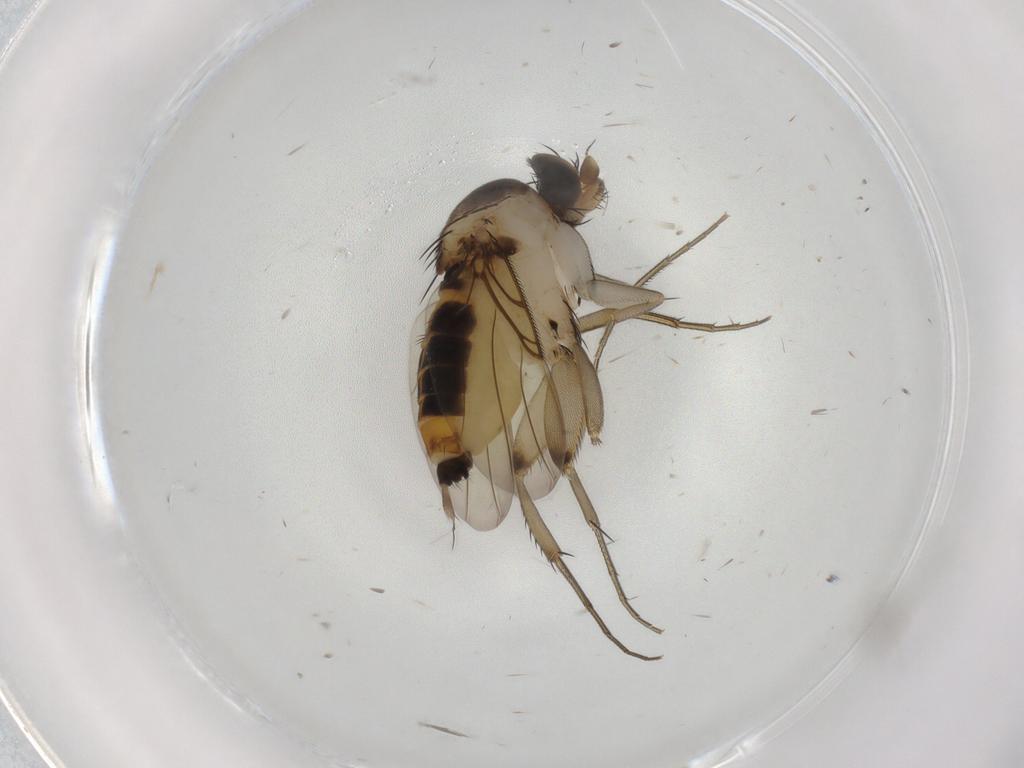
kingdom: Animalia
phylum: Arthropoda
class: Insecta
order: Diptera
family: Phoridae
